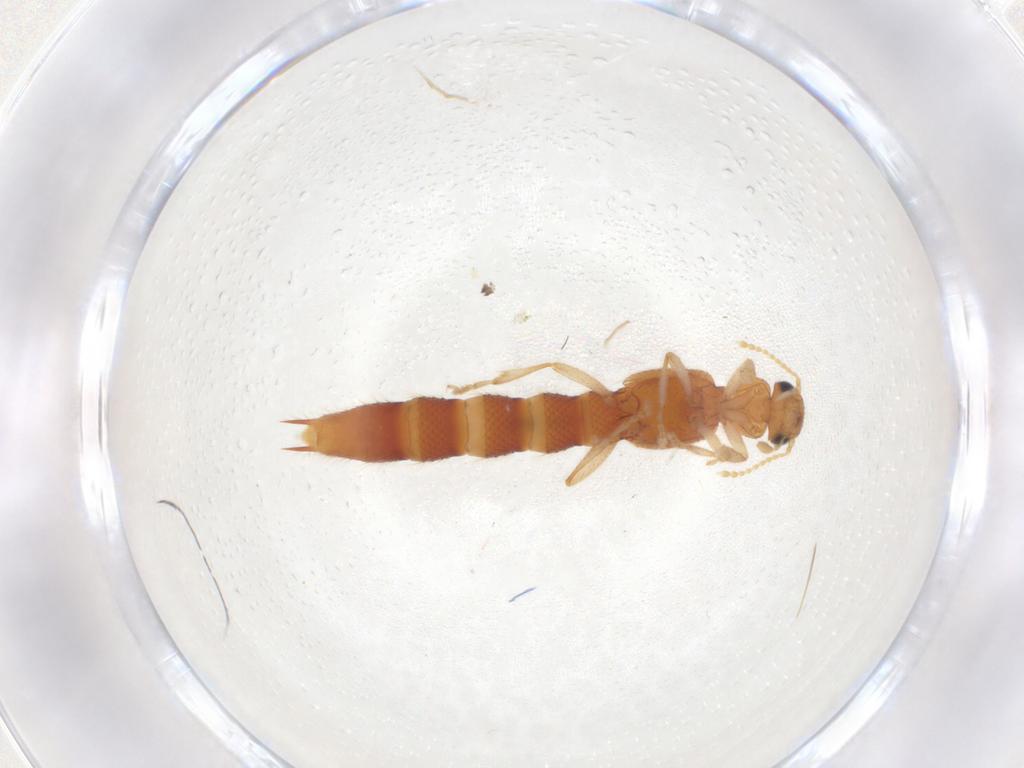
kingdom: Animalia
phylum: Arthropoda
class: Insecta
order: Coleoptera
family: Staphylinidae
